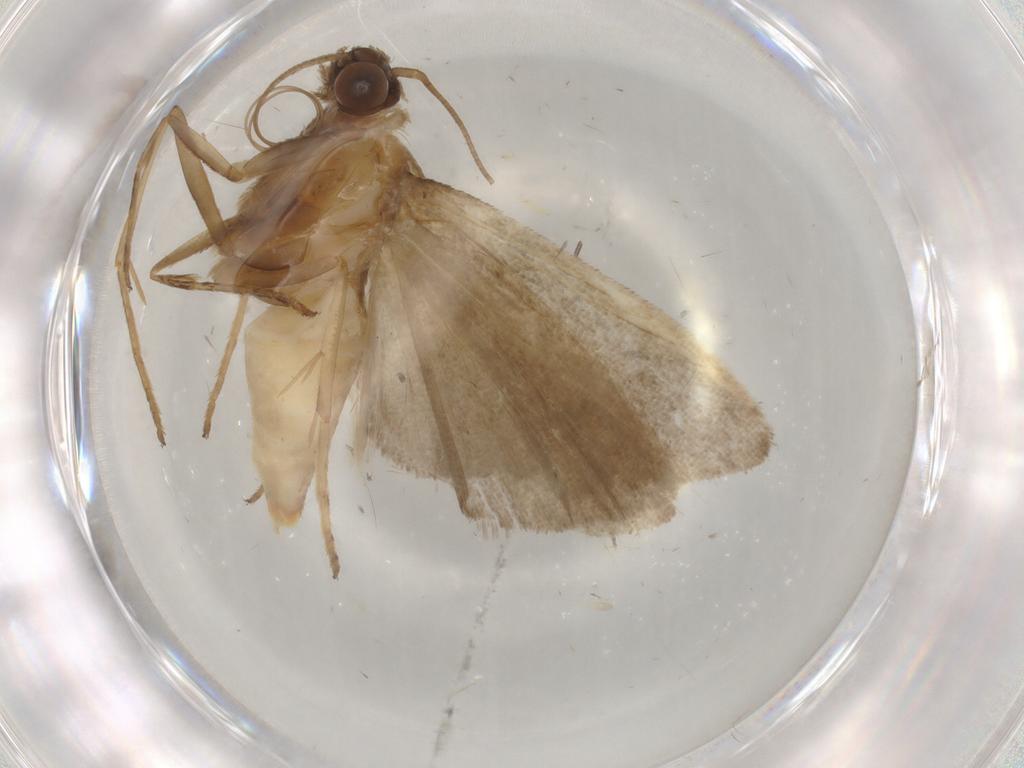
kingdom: Animalia
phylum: Arthropoda
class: Insecta
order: Lepidoptera
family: Noctuidae
